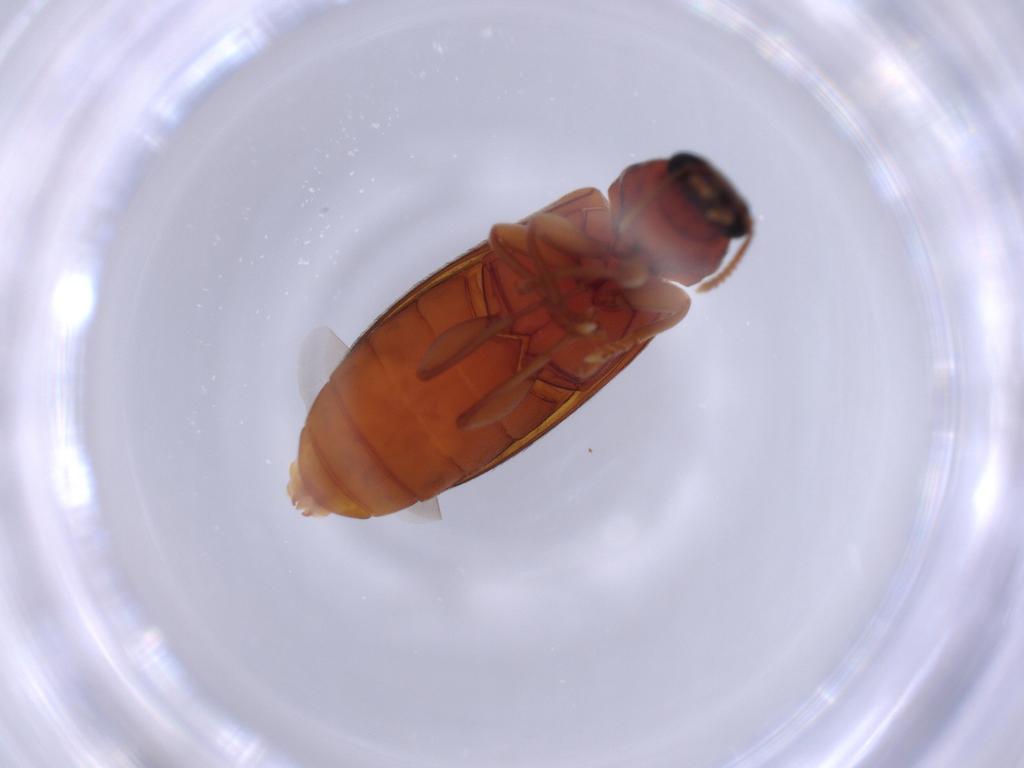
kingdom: Animalia
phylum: Arthropoda
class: Insecta
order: Coleoptera
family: Mycteridae
